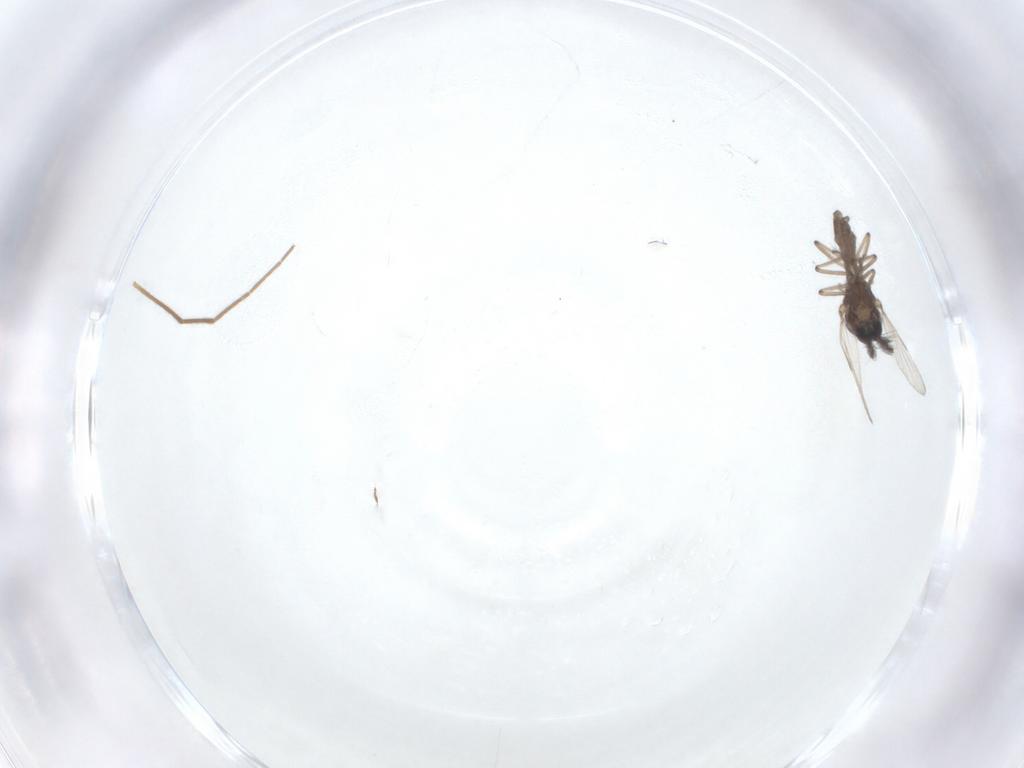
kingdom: Animalia
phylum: Arthropoda
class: Insecta
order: Diptera
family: Ceratopogonidae
